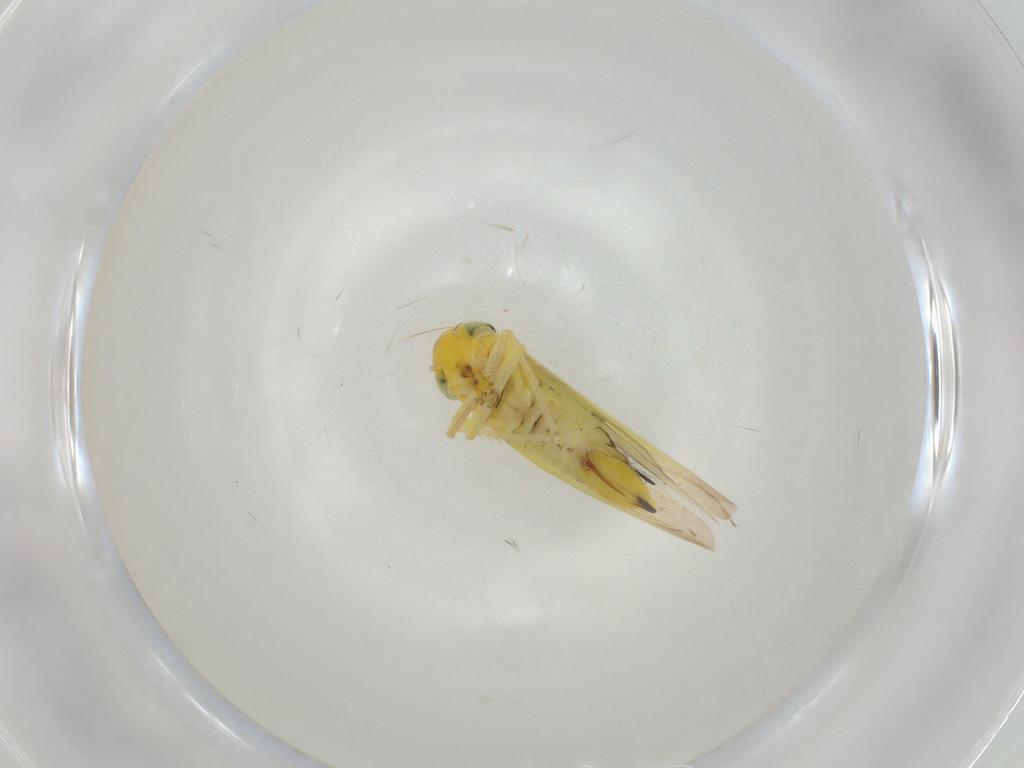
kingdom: Animalia
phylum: Arthropoda
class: Insecta
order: Hemiptera
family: Cicadellidae
